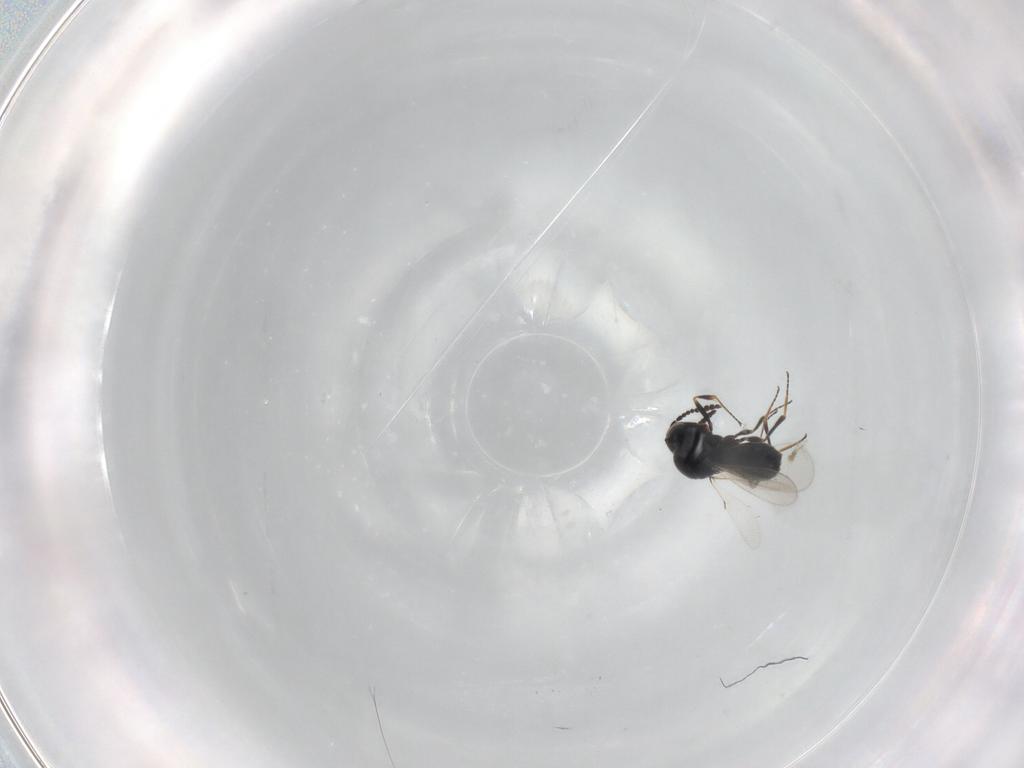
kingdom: Animalia
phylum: Arthropoda
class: Insecta
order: Hymenoptera
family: Scelionidae
